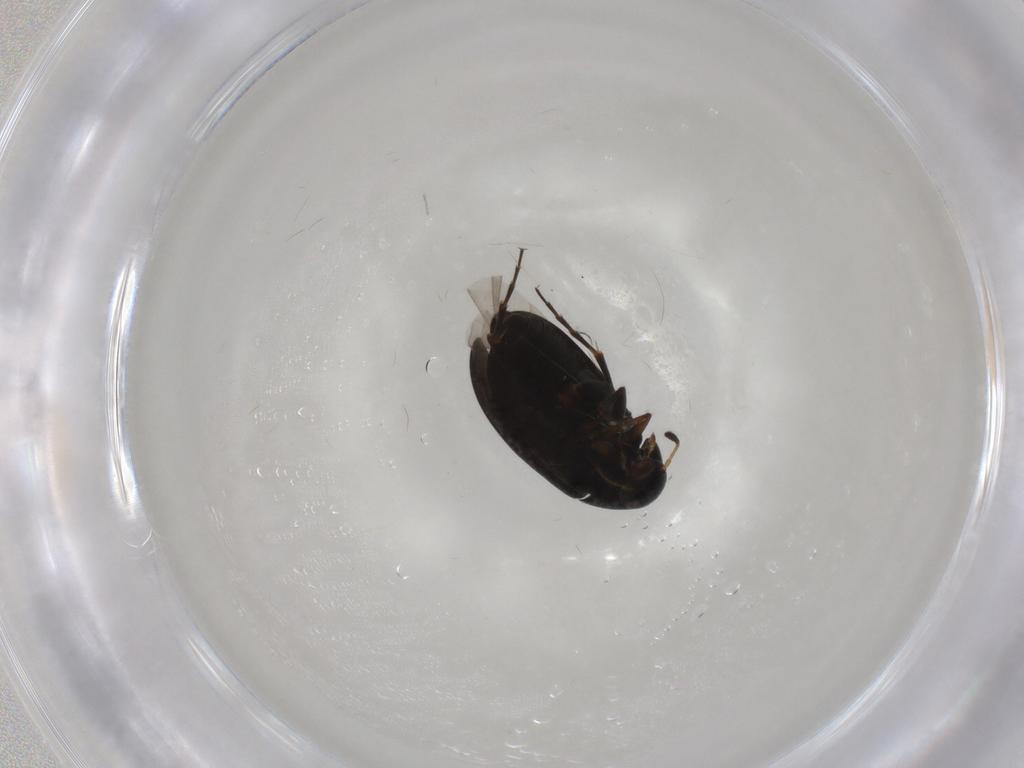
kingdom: Animalia
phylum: Arthropoda
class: Insecta
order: Coleoptera
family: Scraptiidae
